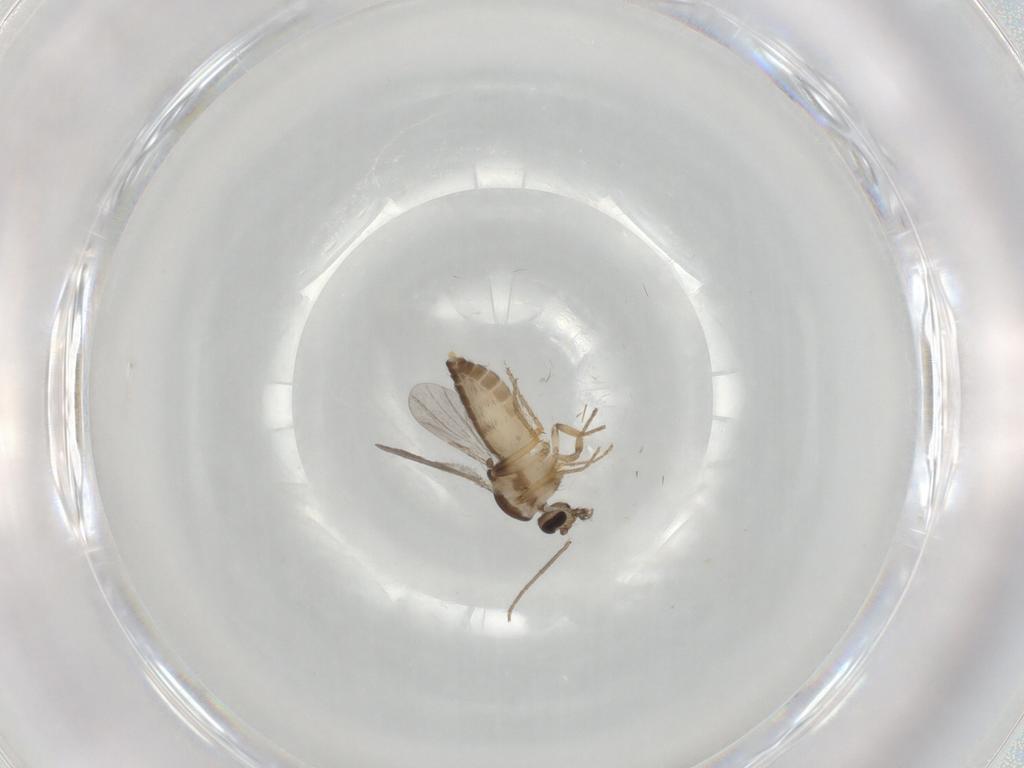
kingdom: Animalia
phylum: Arthropoda
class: Insecta
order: Diptera
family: Ceratopogonidae
